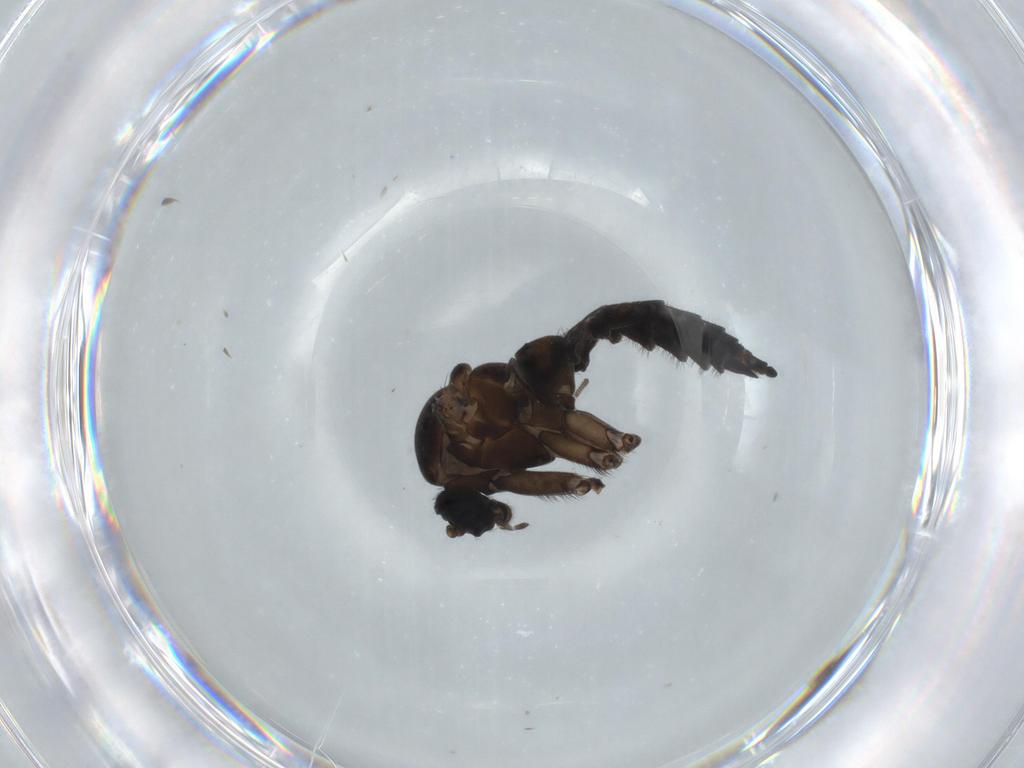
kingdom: Animalia
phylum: Arthropoda
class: Insecta
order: Diptera
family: Sciaridae
